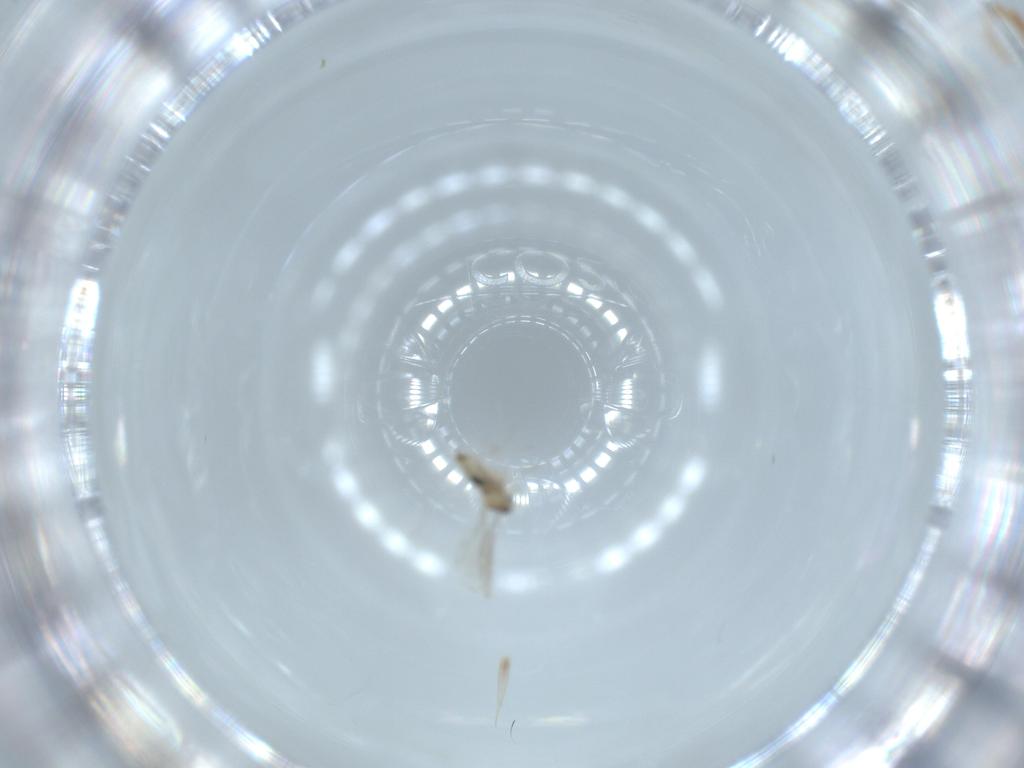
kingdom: Animalia
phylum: Arthropoda
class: Insecta
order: Diptera
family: Cecidomyiidae
